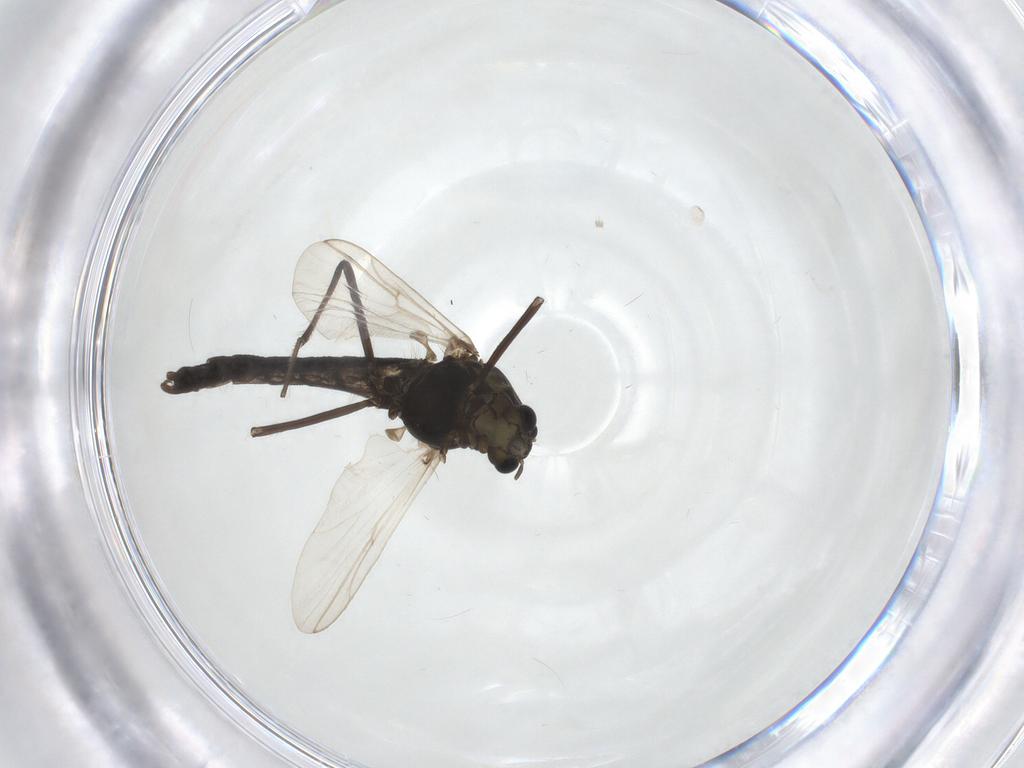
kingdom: Animalia
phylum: Arthropoda
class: Insecta
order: Diptera
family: Chironomidae
